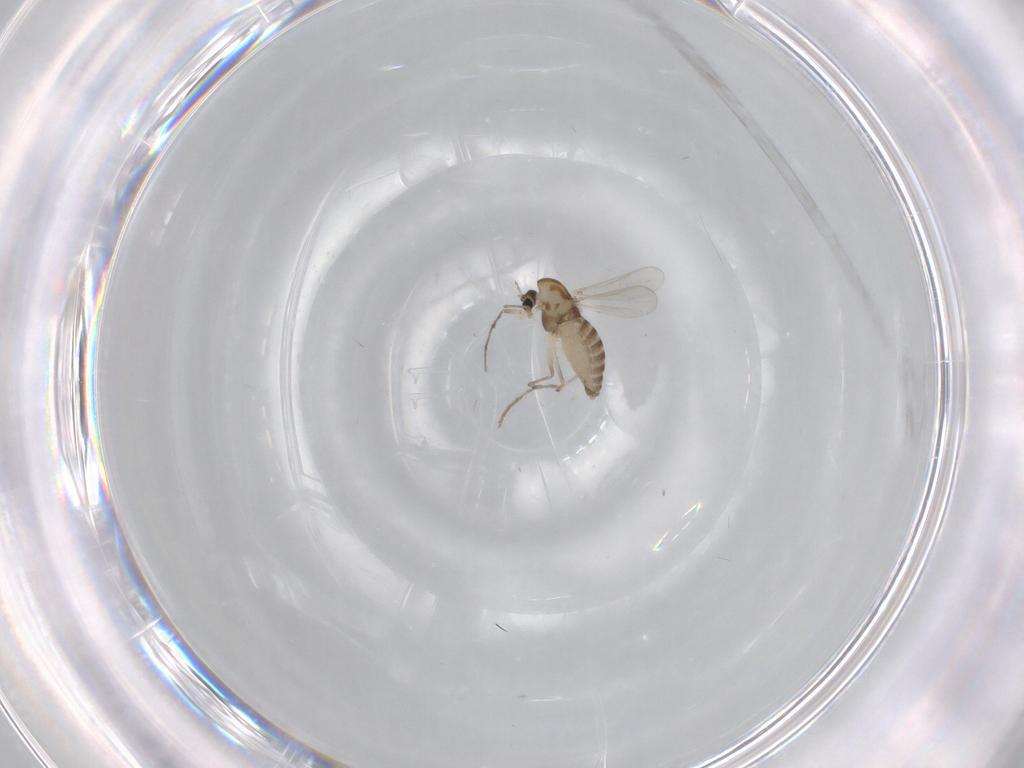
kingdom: Animalia
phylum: Arthropoda
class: Insecta
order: Diptera
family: Chironomidae
